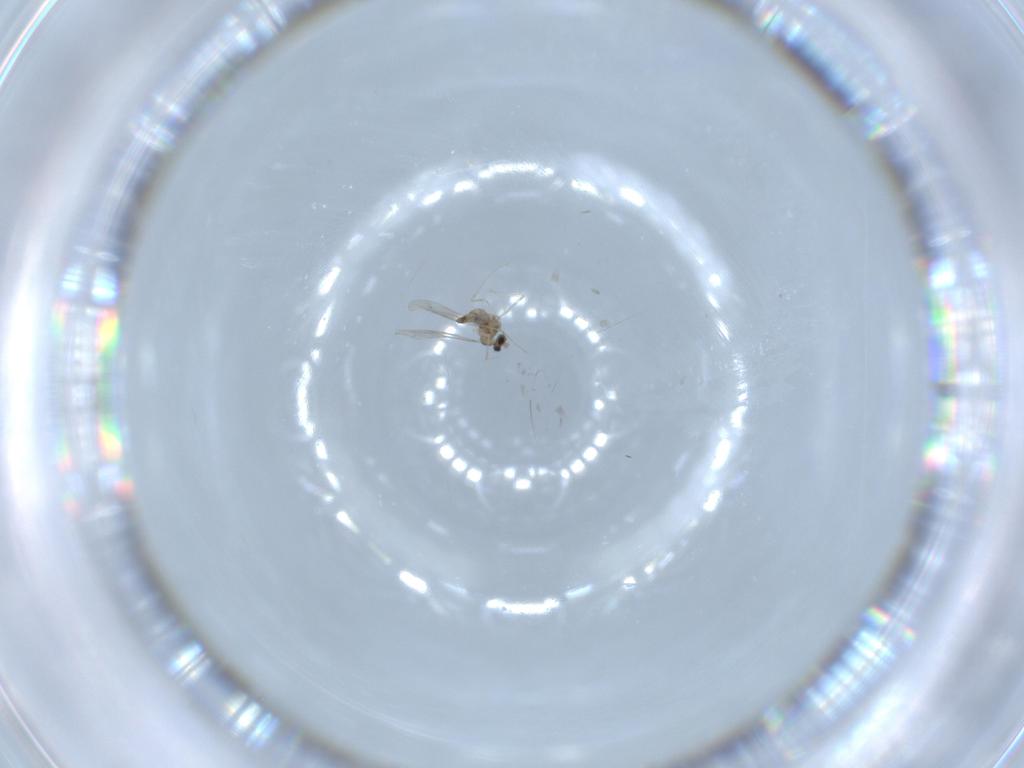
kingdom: Animalia
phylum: Arthropoda
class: Insecta
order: Diptera
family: Cecidomyiidae
